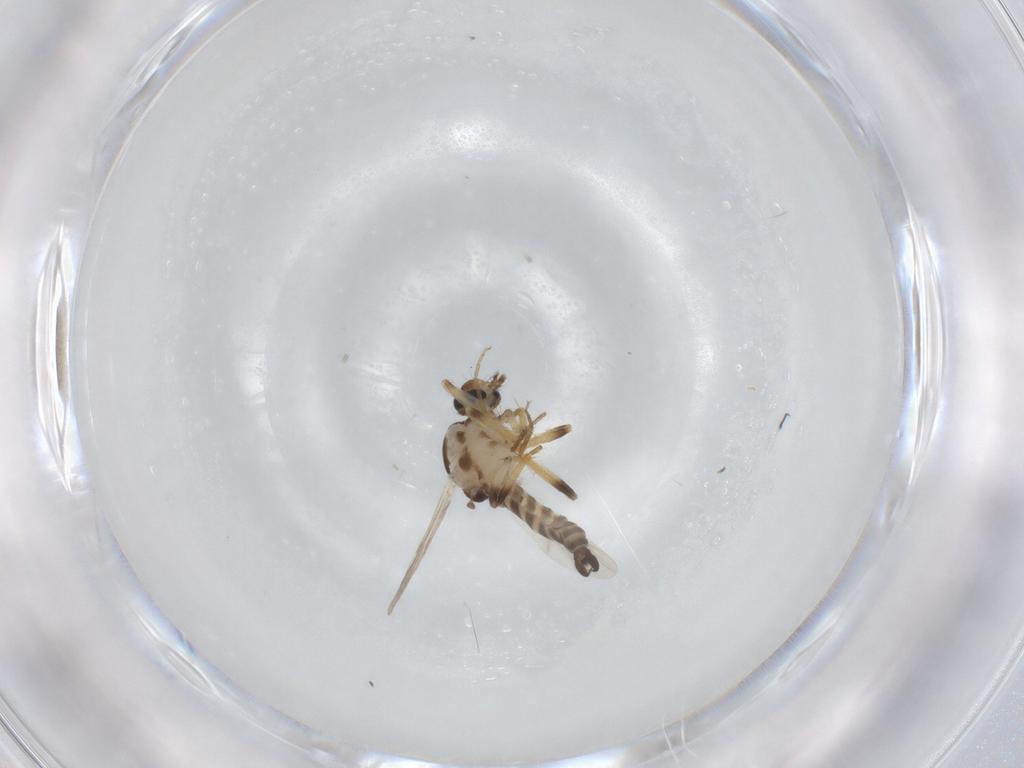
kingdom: Animalia
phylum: Arthropoda
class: Insecta
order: Diptera
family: Ceratopogonidae
